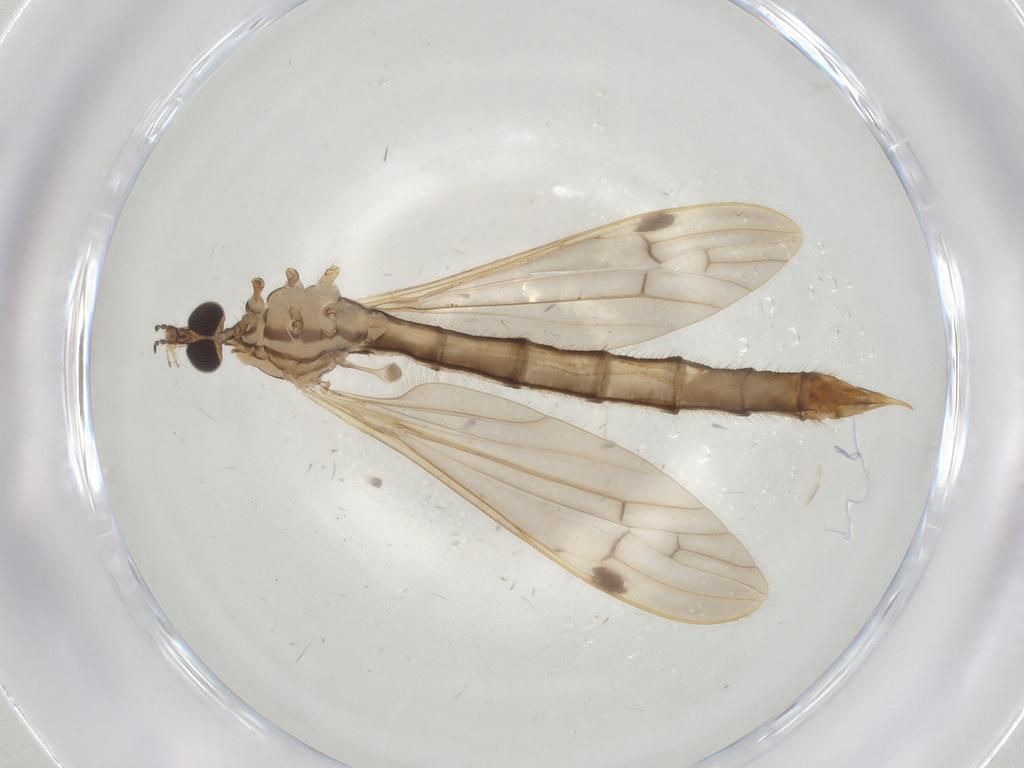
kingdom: Animalia
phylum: Arthropoda
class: Insecta
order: Diptera
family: Limoniidae
